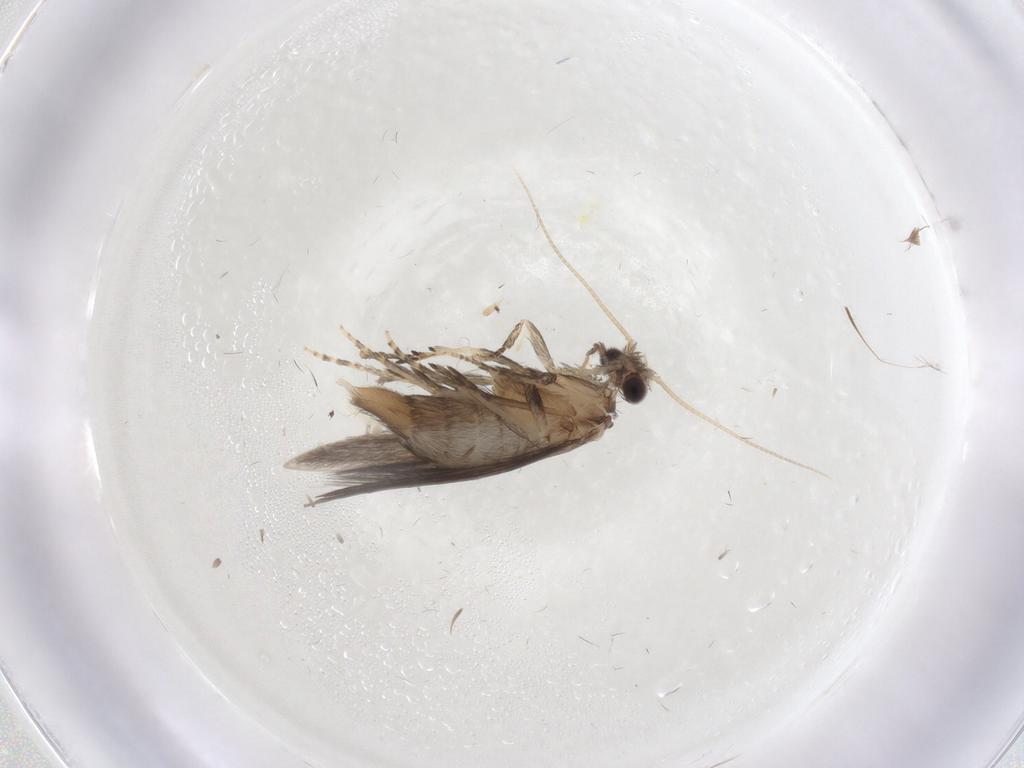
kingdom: Animalia
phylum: Arthropoda
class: Insecta
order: Trichoptera
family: Hydroptilidae
